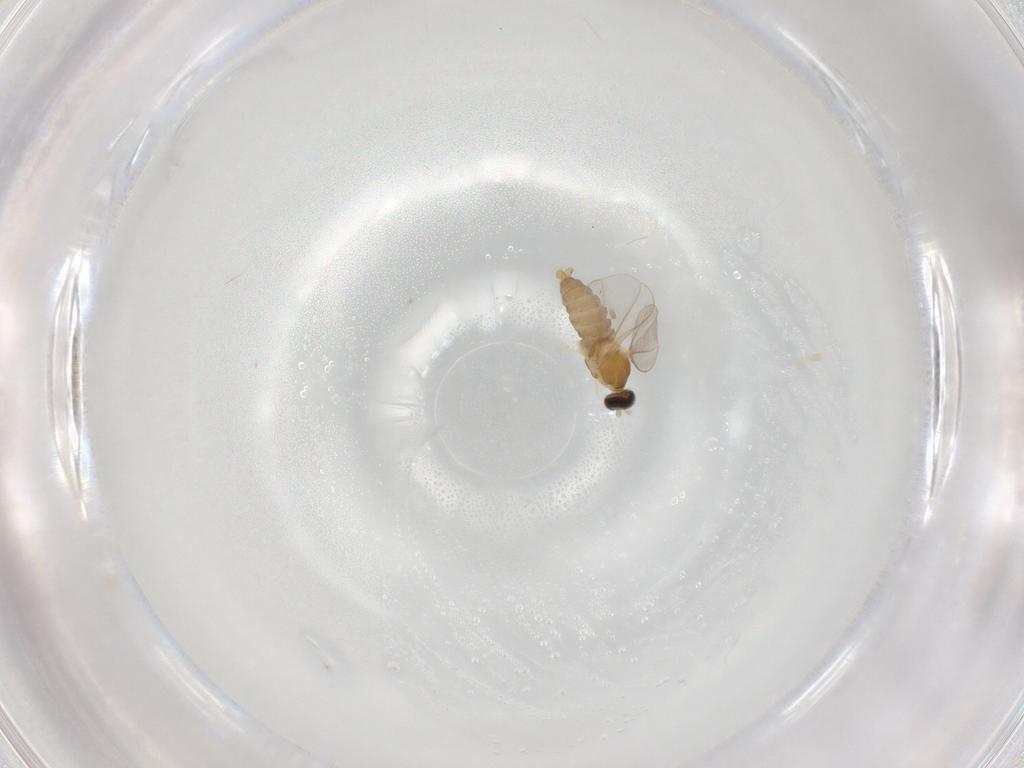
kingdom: Animalia
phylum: Arthropoda
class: Insecta
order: Diptera
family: Cecidomyiidae
